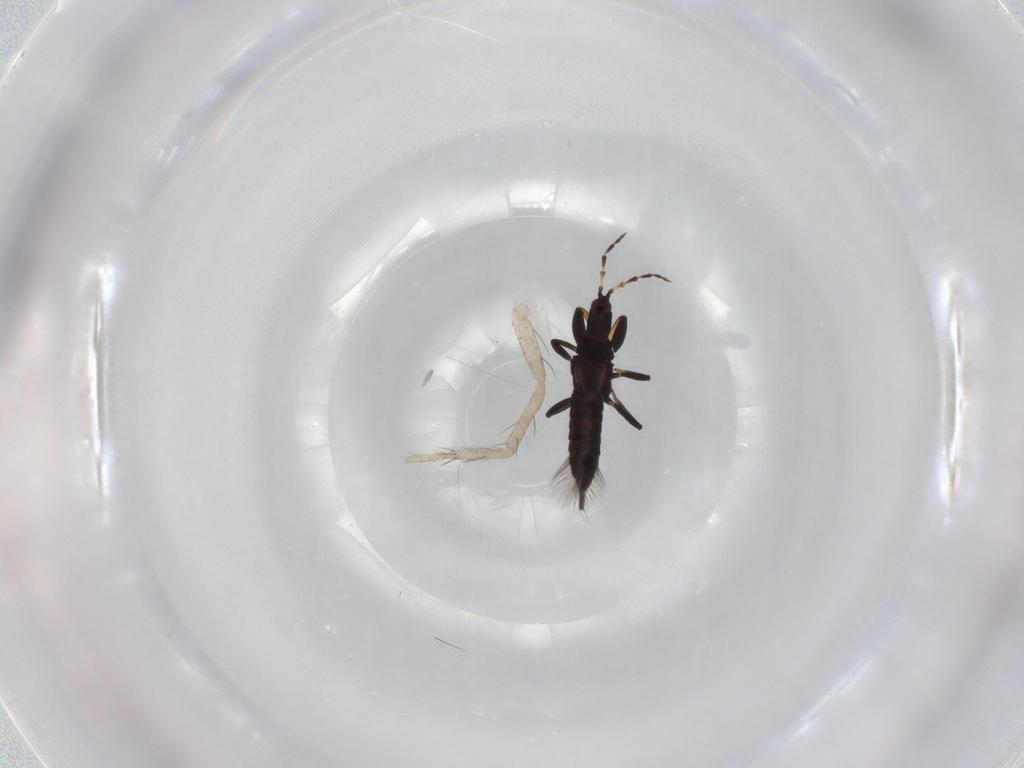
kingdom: Animalia
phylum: Arthropoda
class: Insecta
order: Thysanoptera
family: Phlaeothripidae
